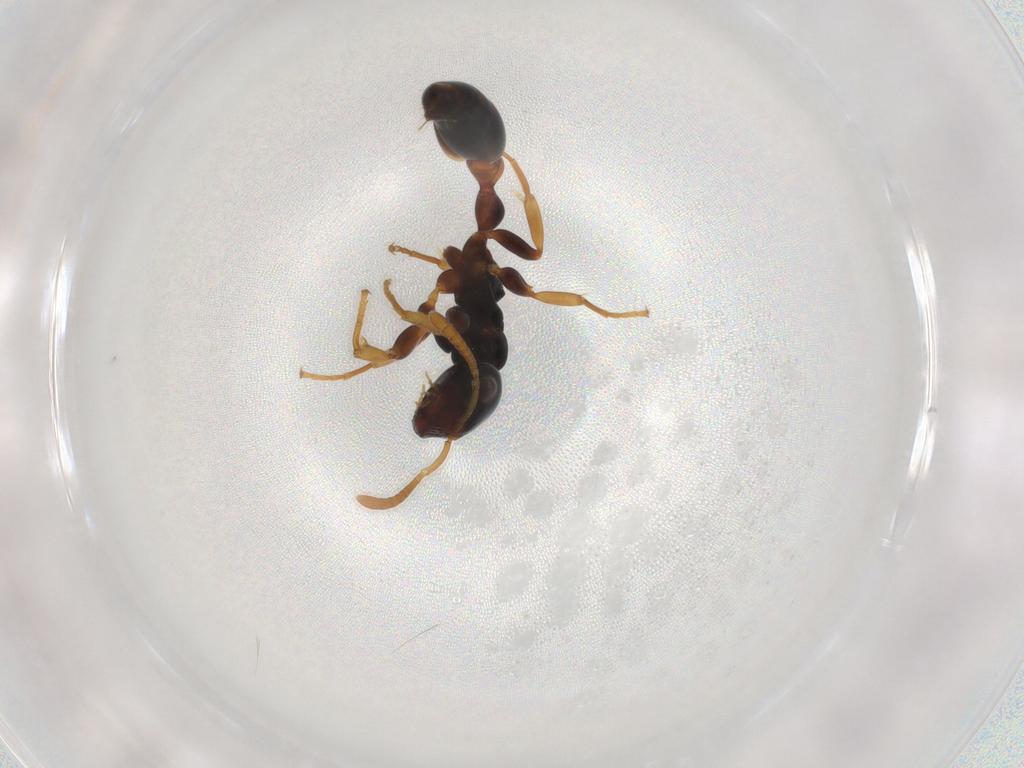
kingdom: Animalia
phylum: Arthropoda
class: Insecta
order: Hymenoptera
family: Formicidae
